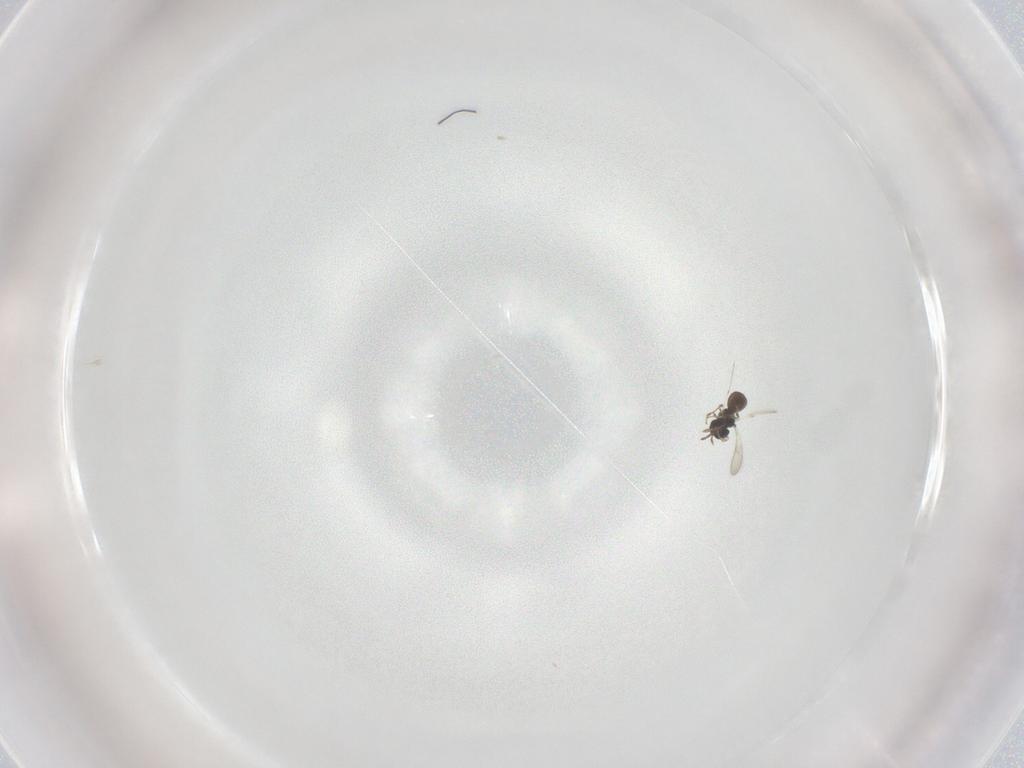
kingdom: Animalia
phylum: Arthropoda
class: Insecta
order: Hymenoptera
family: Scelionidae
